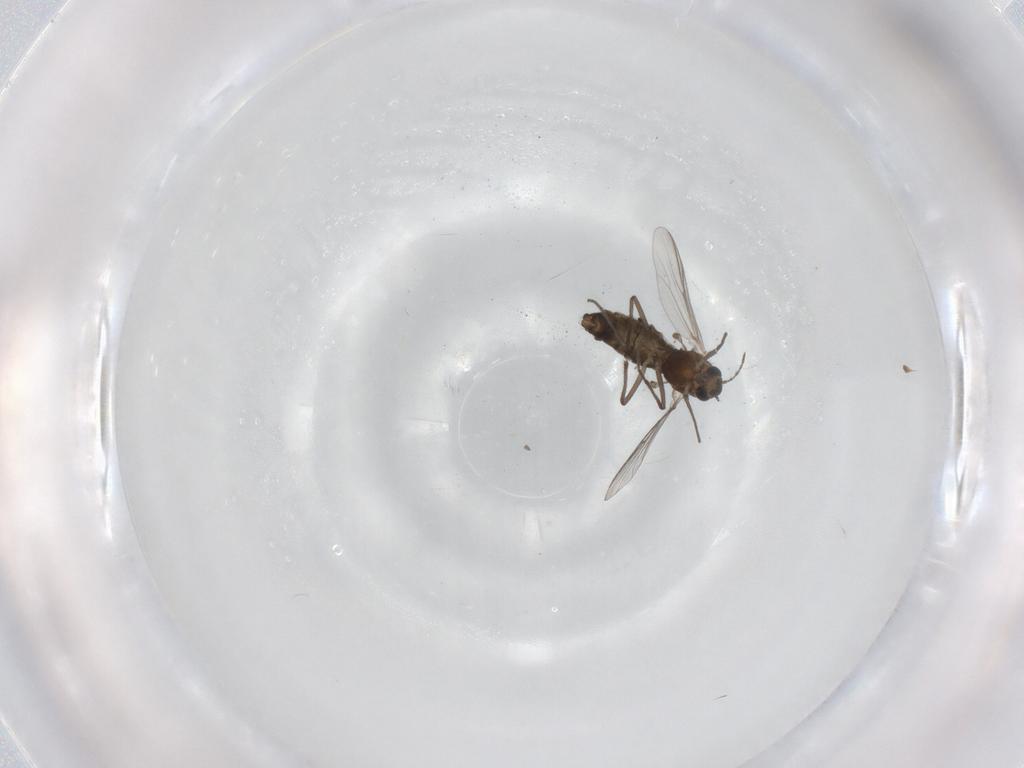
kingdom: Animalia
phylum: Arthropoda
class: Insecta
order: Diptera
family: Chironomidae
